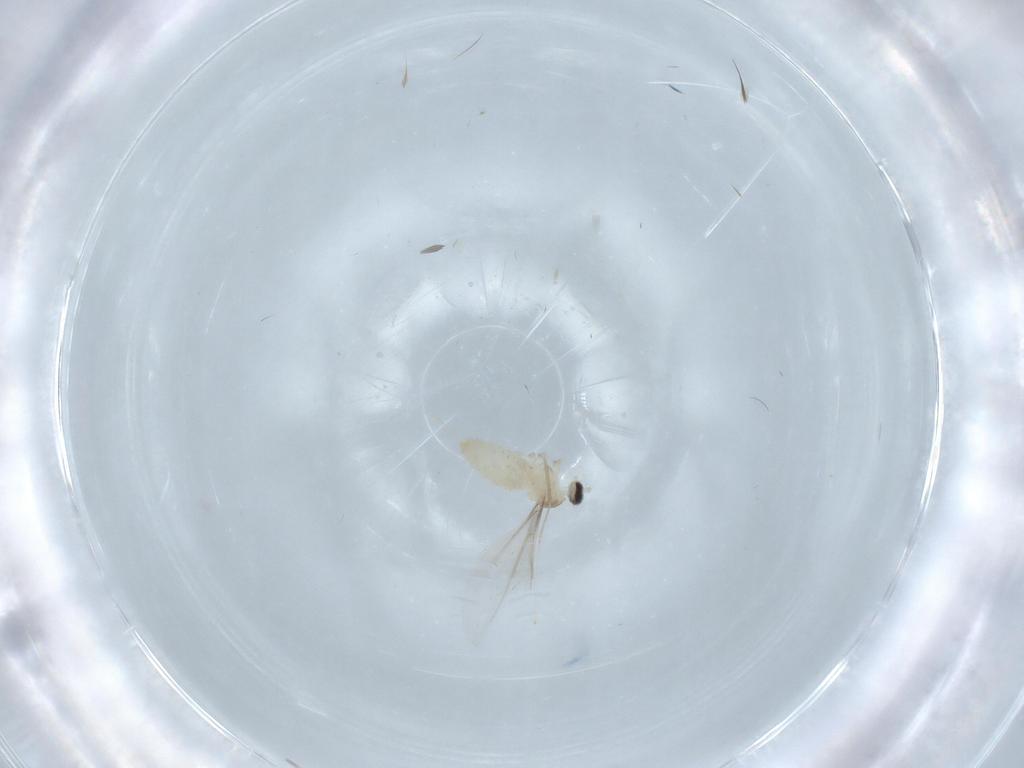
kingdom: Animalia
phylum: Arthropoda
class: Insecta
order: Diptera
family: Cecidomyiidae
